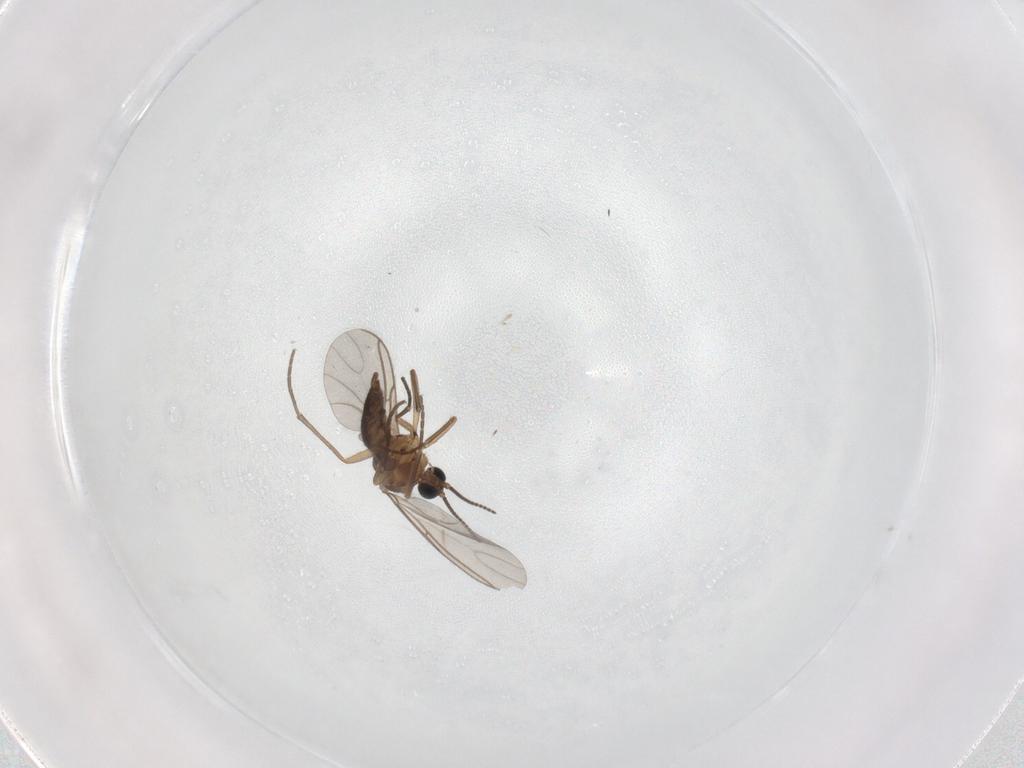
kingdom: Animalia
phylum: Arthropoda
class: Insecta
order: Diptera
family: Sciaridae
